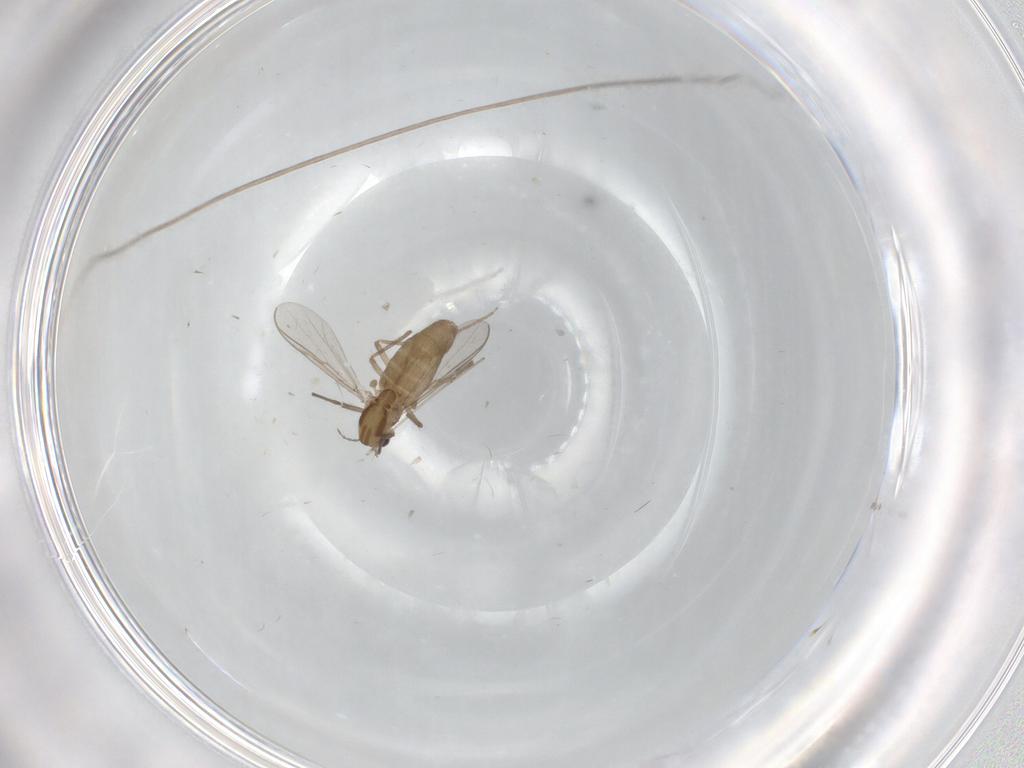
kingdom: Animalia
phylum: Arthropoda
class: Insecta
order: Diptera
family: Chironomidae
